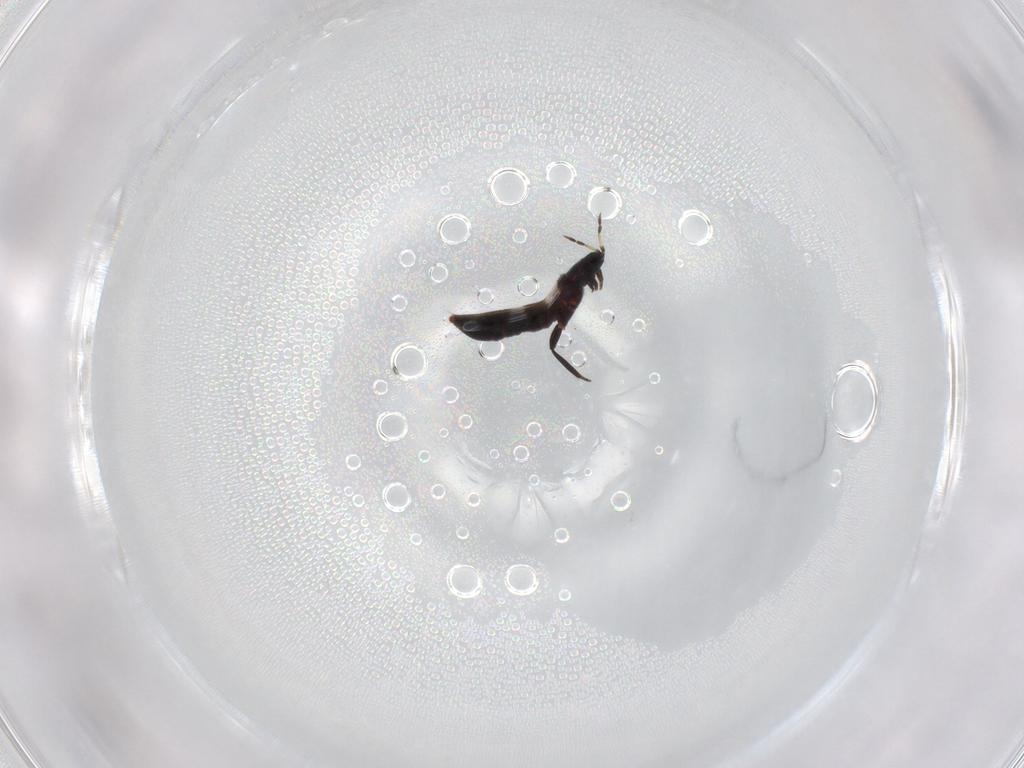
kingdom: Animalia
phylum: Arthropoda
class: Insecta
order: Thysanoptera
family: Aeolothripidae
